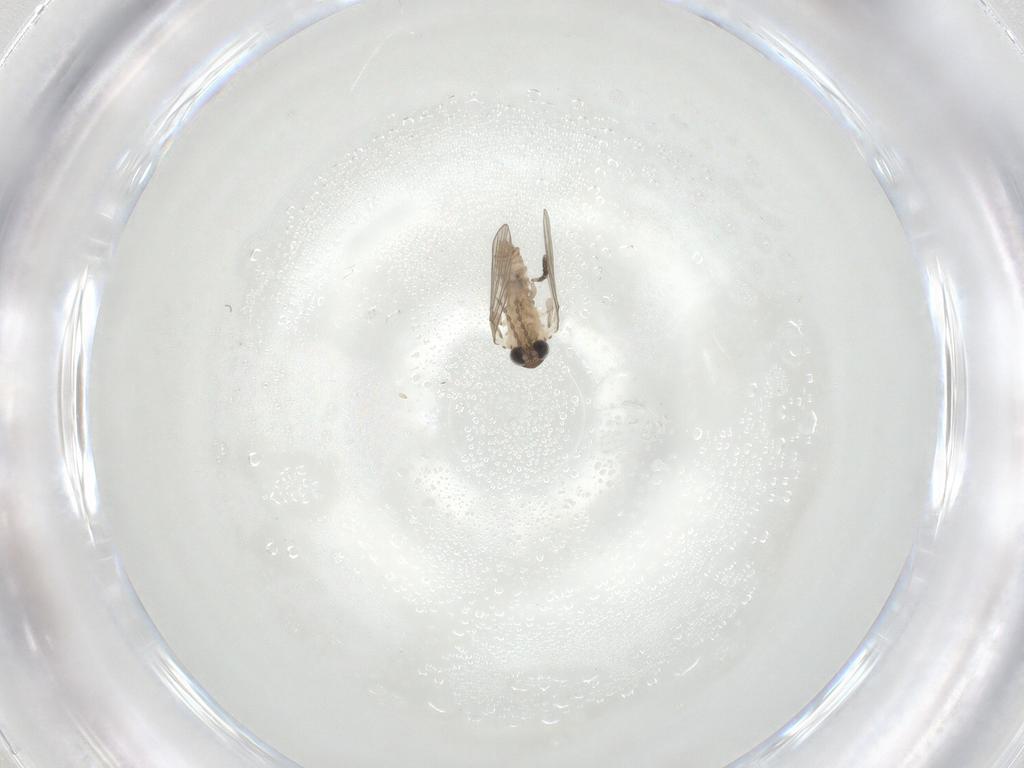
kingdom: Animalia
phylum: Arthropoda
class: Insecta
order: Diptera
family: Psychodidae
